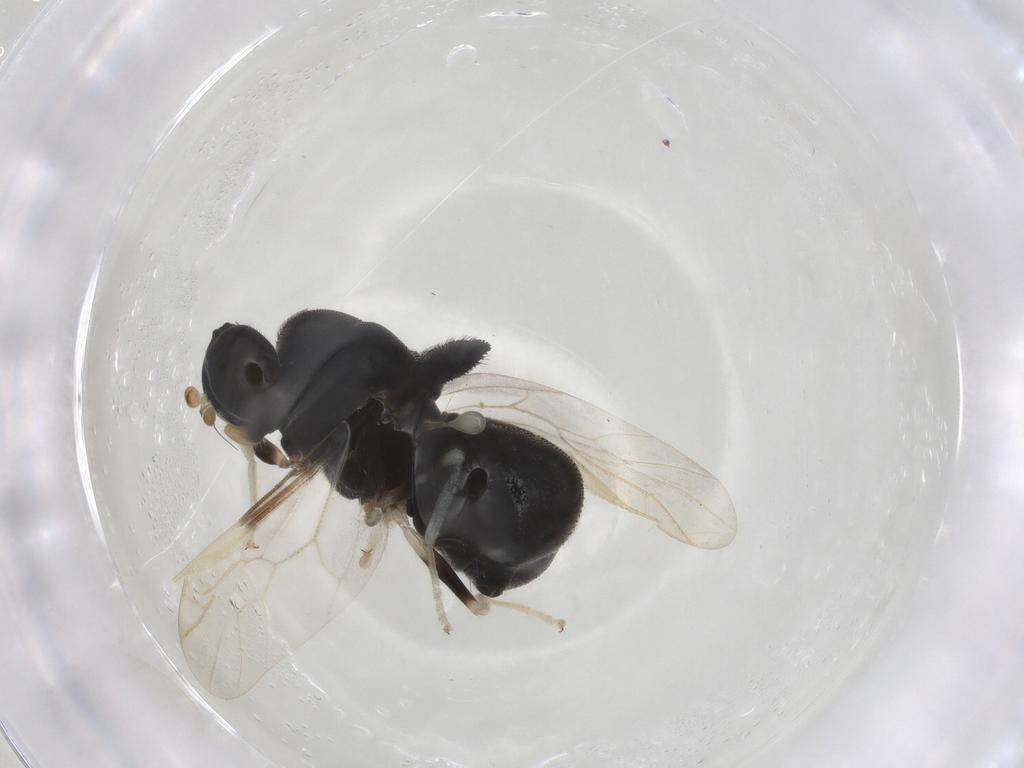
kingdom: Animalia
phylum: Arthropoda
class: Insecta
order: Diptera
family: Stratiomyidae
